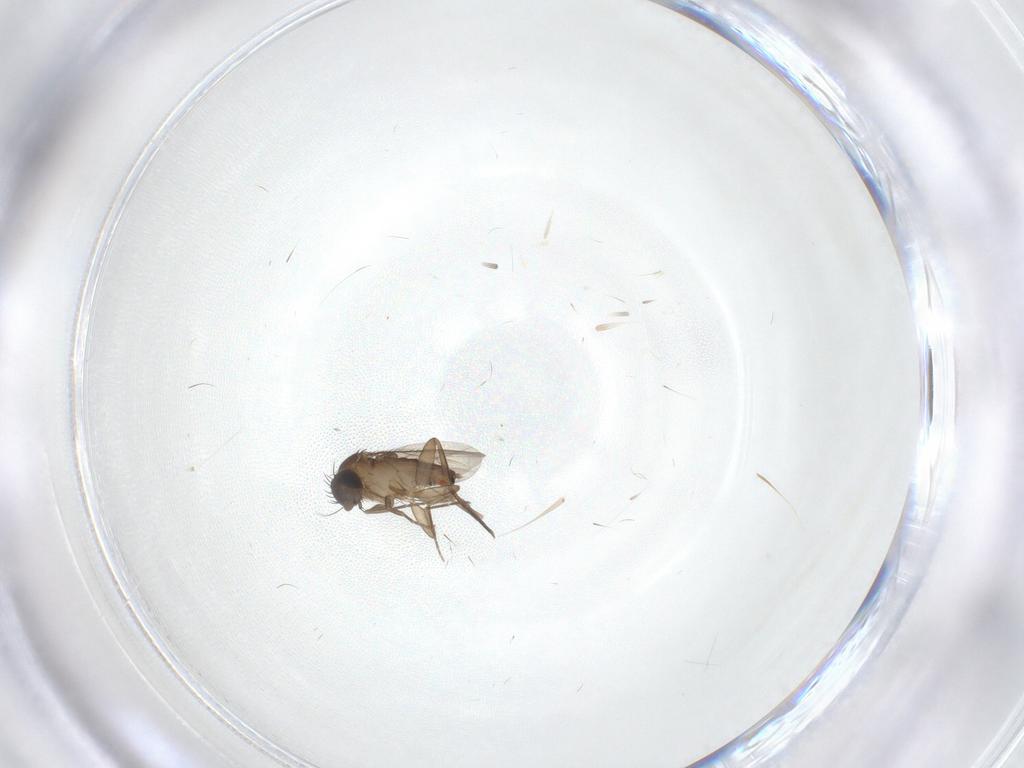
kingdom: Animalia
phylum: Arthropoda
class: Insecta
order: Diptera
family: Phoridae
